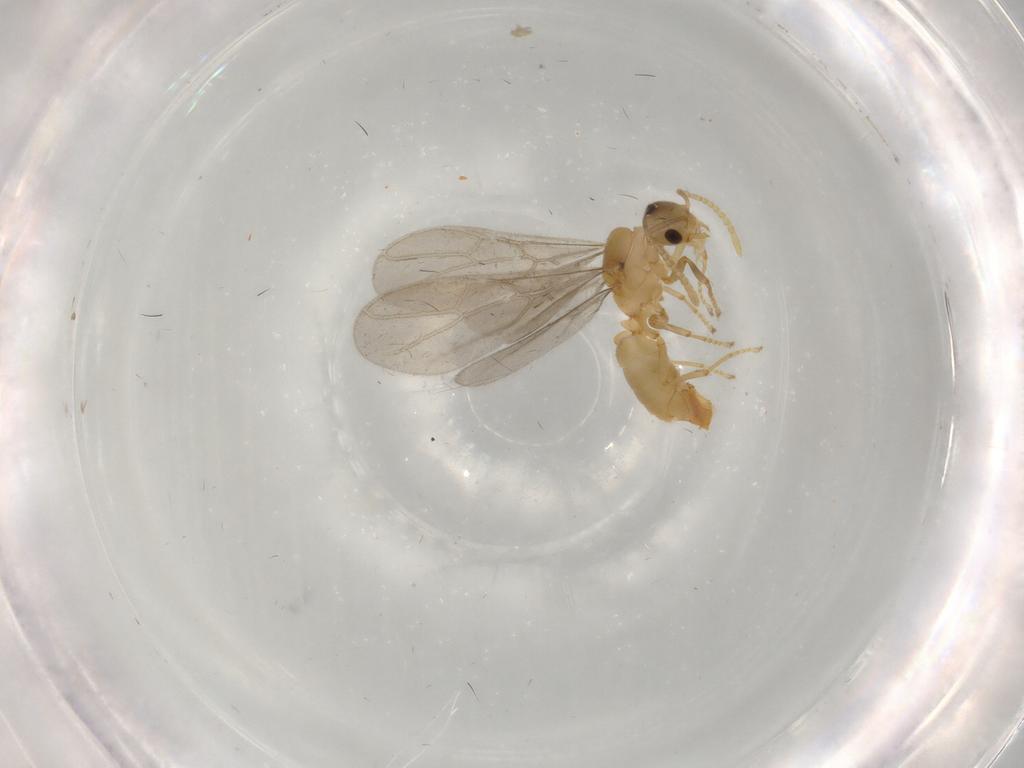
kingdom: Animalia
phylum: Arthropoda
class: Insecta
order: Hymenoptera
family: Formicidae
